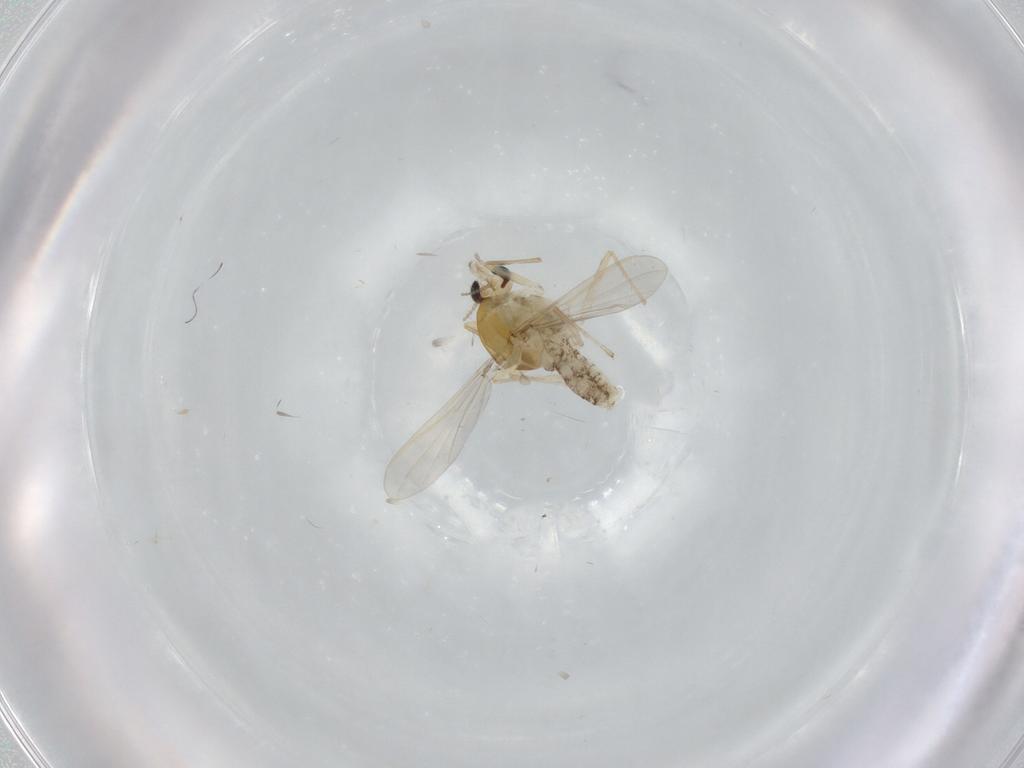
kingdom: Animalia
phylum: Arthropoda
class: Insecta
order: Diptera
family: Chironomidae
